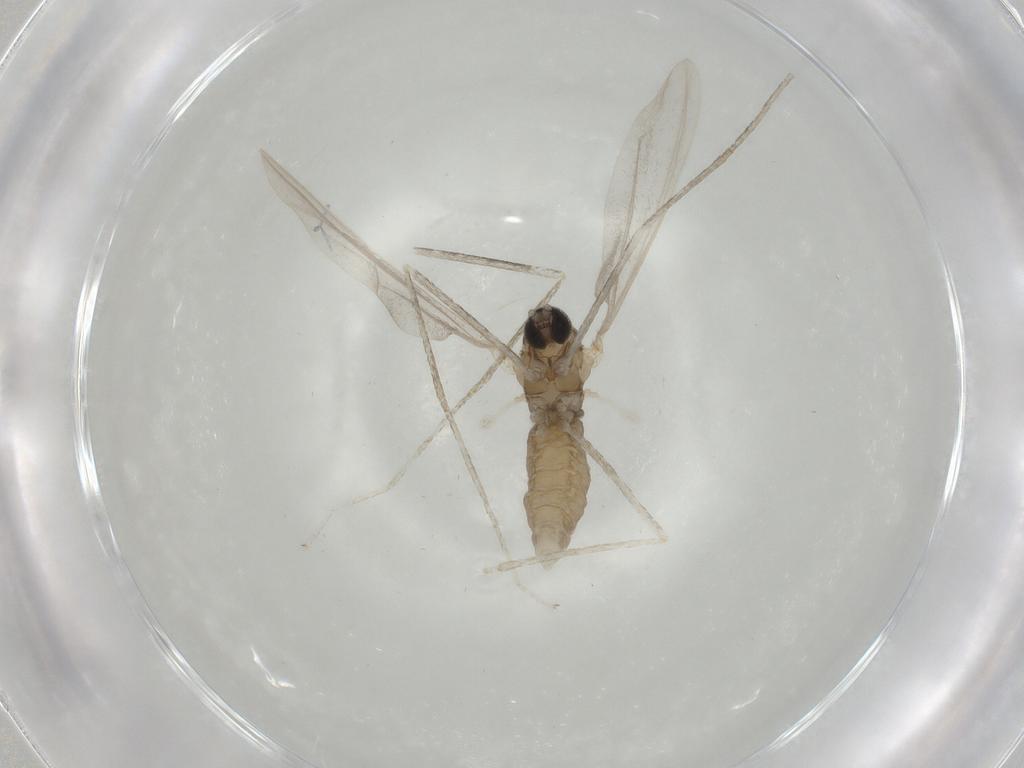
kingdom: Animalia
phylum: Arthropoda
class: Insecta
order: Diptera
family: Cecidomyiidae
